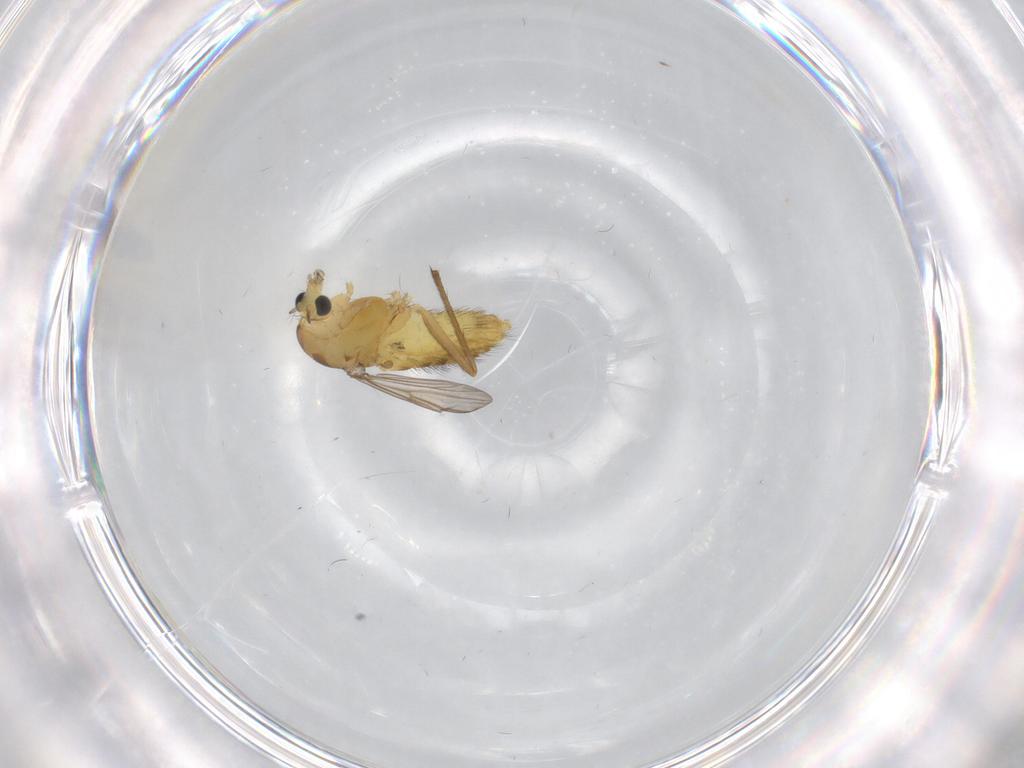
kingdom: Animalia
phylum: Arthropoda
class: Insecta
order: Diptera
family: Chironomidae
